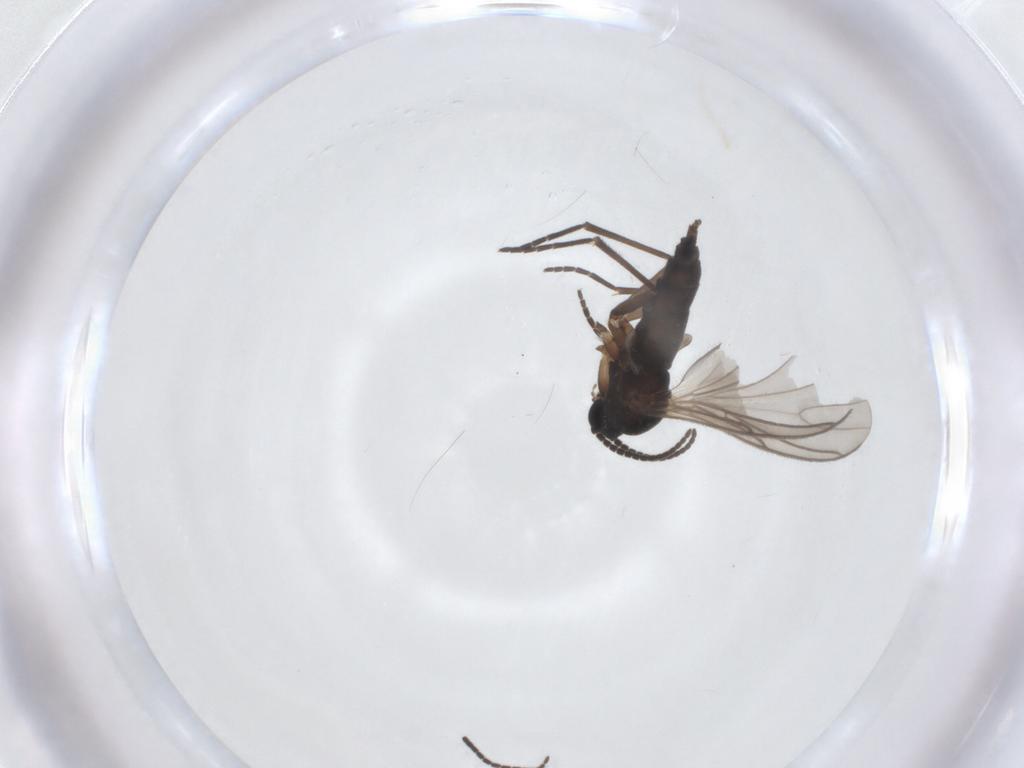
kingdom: Animalia
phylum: Arthropoda
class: Insecta
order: Diptera
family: Sciaridae
